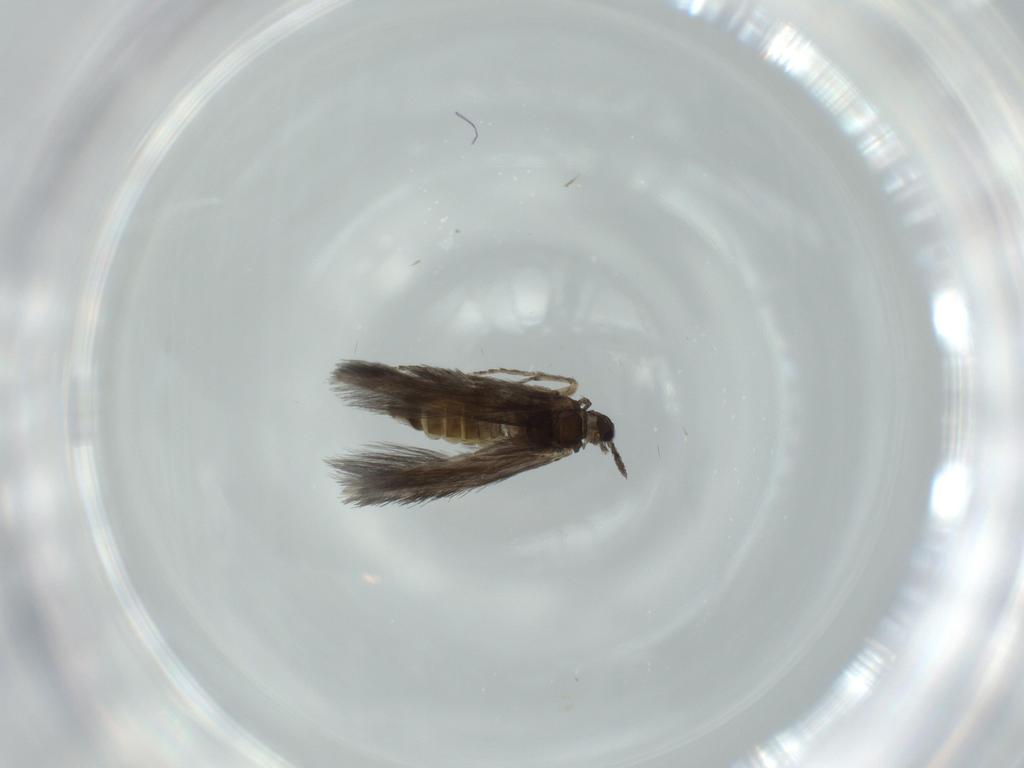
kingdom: Animalia
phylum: Arthropoda
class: Insecta
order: Trichoptera
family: Hydroptilidae
